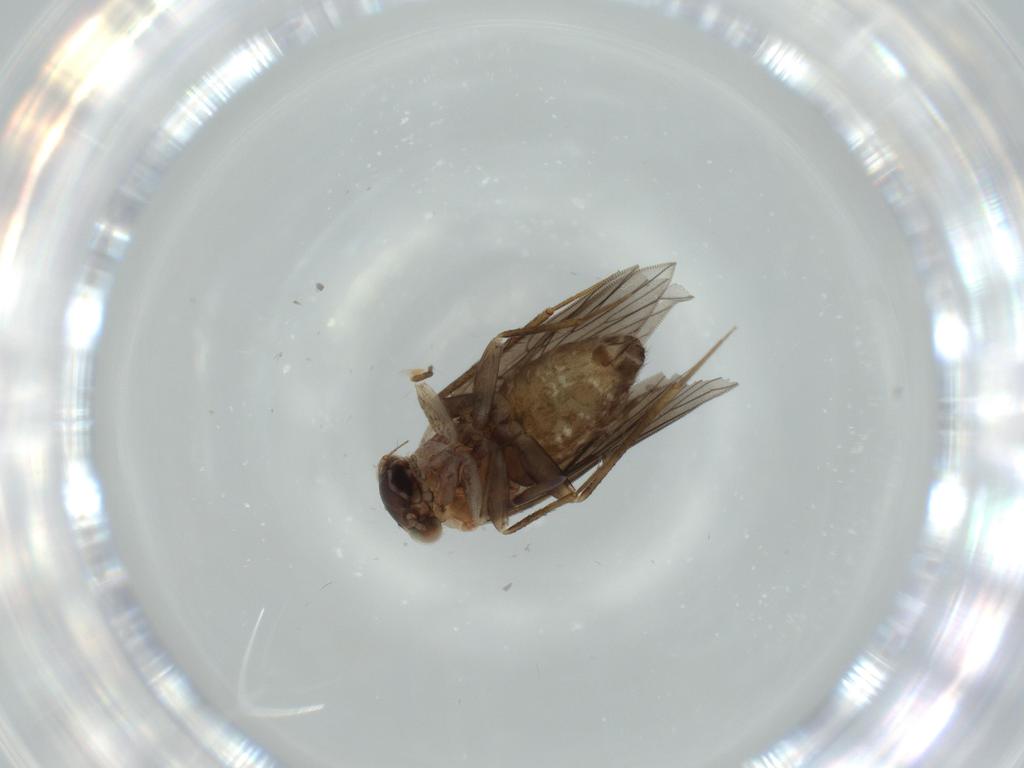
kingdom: Animalia
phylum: Arthropoda
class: Insecta
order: Psocodea
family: Lepidopsocidae
